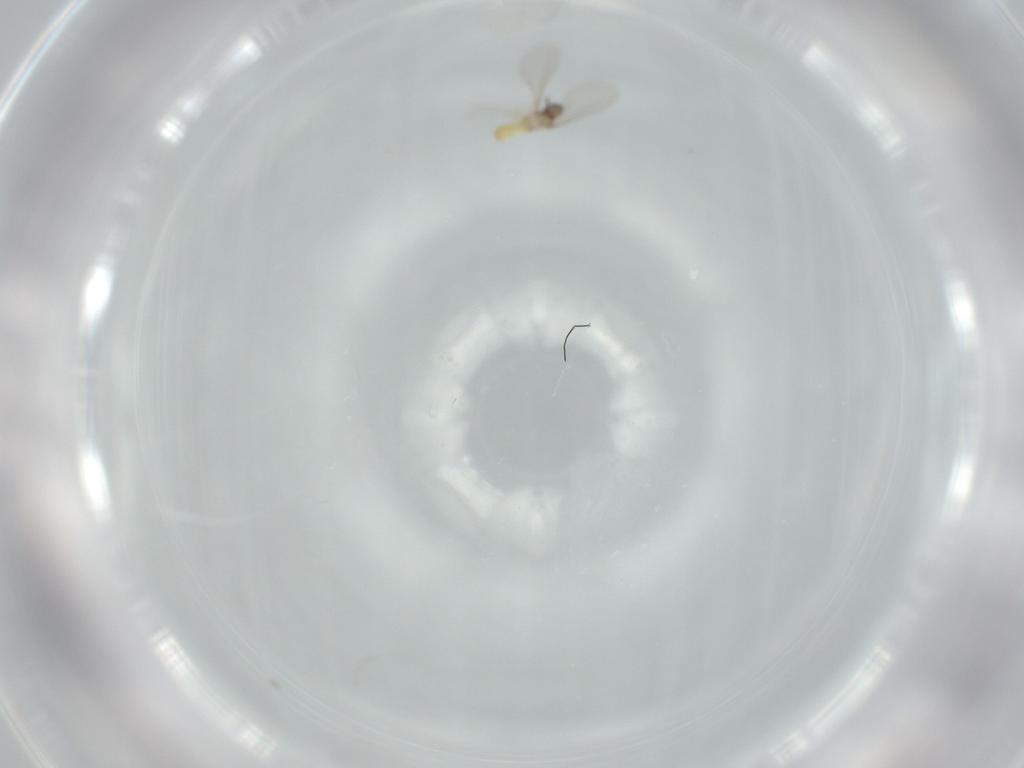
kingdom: Animalia
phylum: Arthropoda
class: Insecta
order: Diptera
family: Cecidomyiidae
